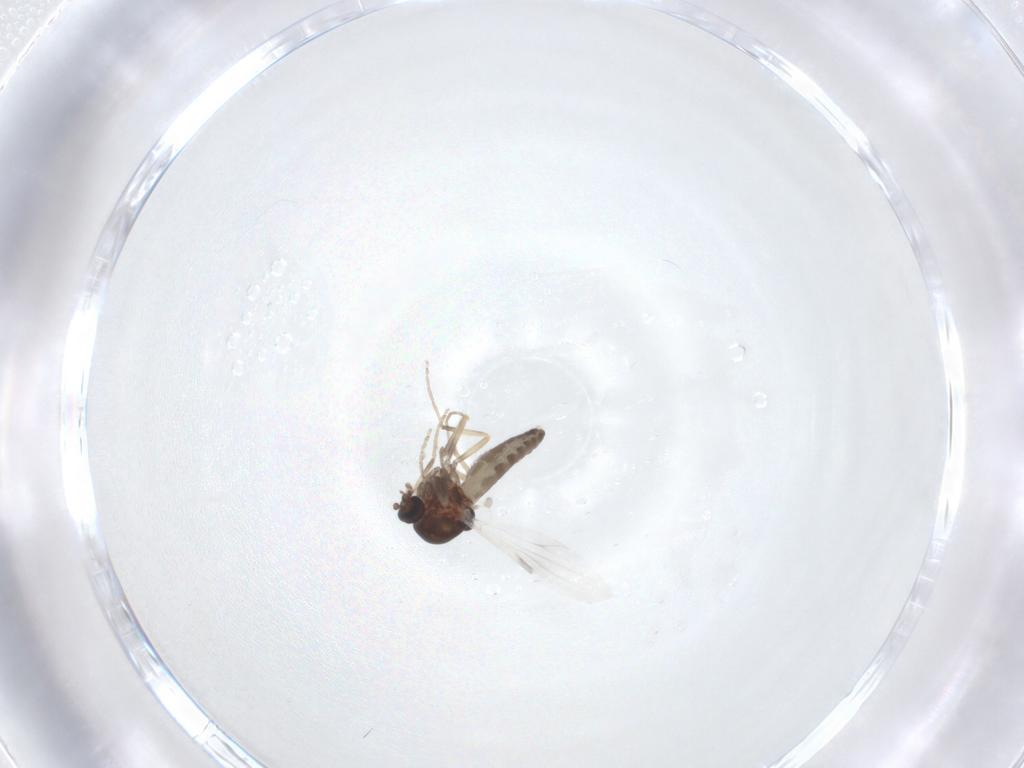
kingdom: Animalia
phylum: Arthropoda
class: Insecta
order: Diptera
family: Ceratopogonidae
